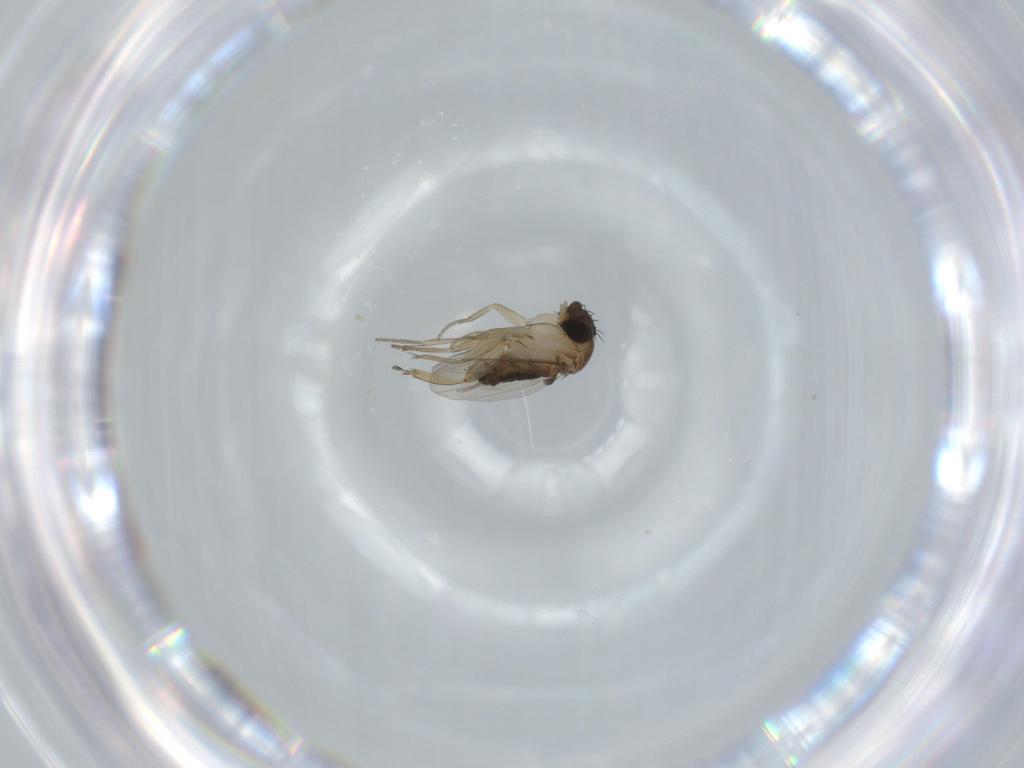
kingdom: Animalia
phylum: Arthropoda
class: Insecta
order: Diptera
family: Phoridae
